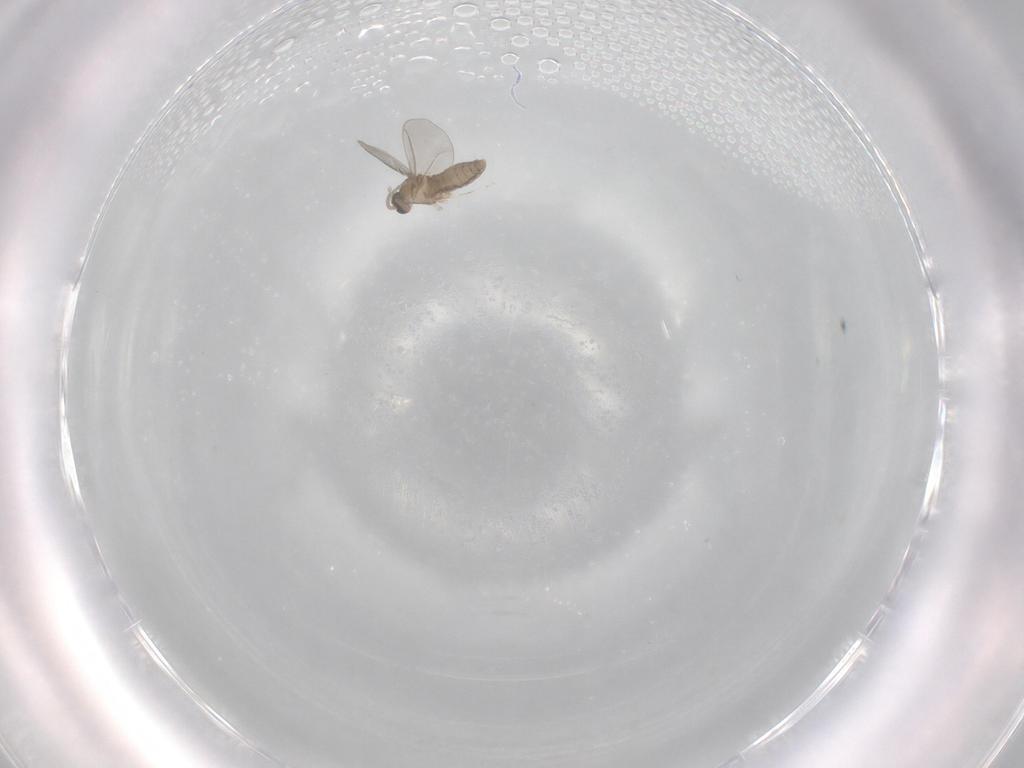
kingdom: Animalia
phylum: Arthropoda
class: Insecta
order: Diptera
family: Cecidomyiidae
